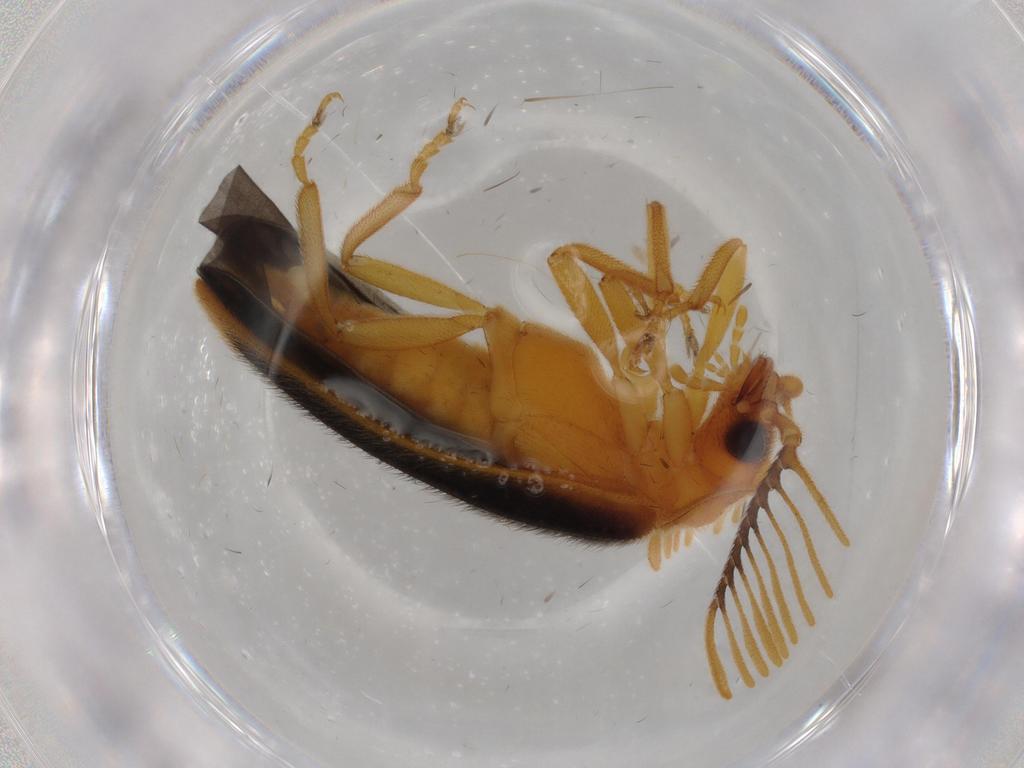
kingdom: Animalia
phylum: Arthropoda
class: Insecta
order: Coleoptera
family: Lampyridae
